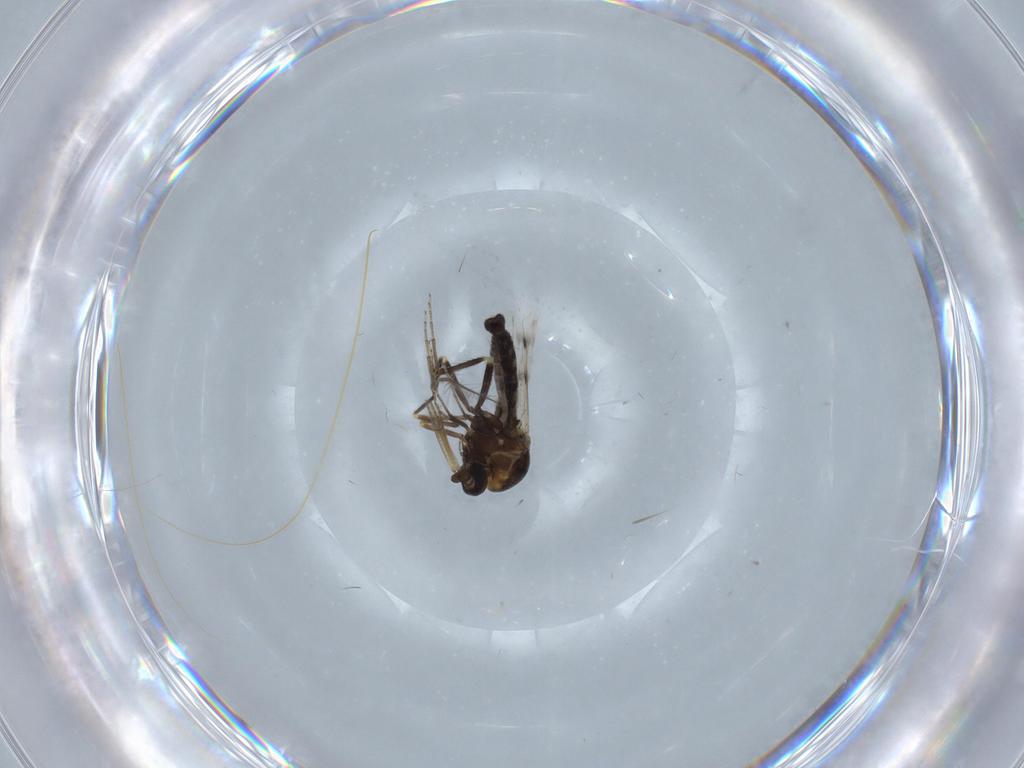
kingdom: Animalia
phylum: Arthropoda
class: Insecta
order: Diptera
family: Ceratopogonidae
